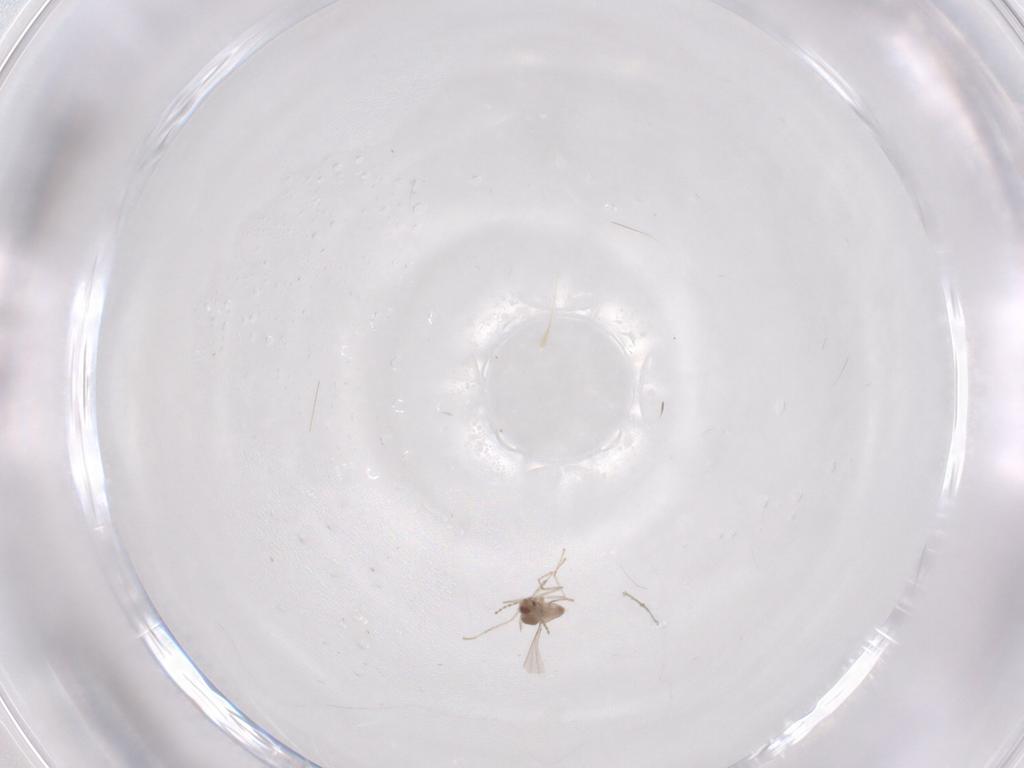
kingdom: Animalia
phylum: Arthropoda
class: Insecta
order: Diptera
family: Cecidomyiidae
